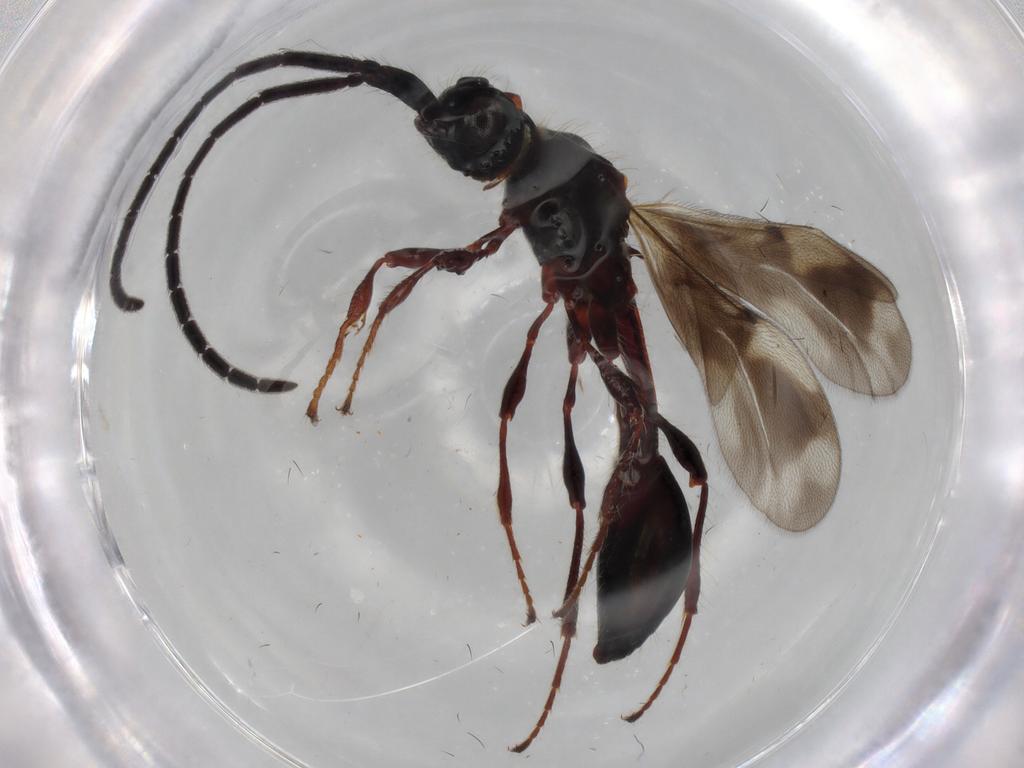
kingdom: Animalia
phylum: Arthropoda
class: Insecta
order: Hymenoptera
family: Diapriidae
